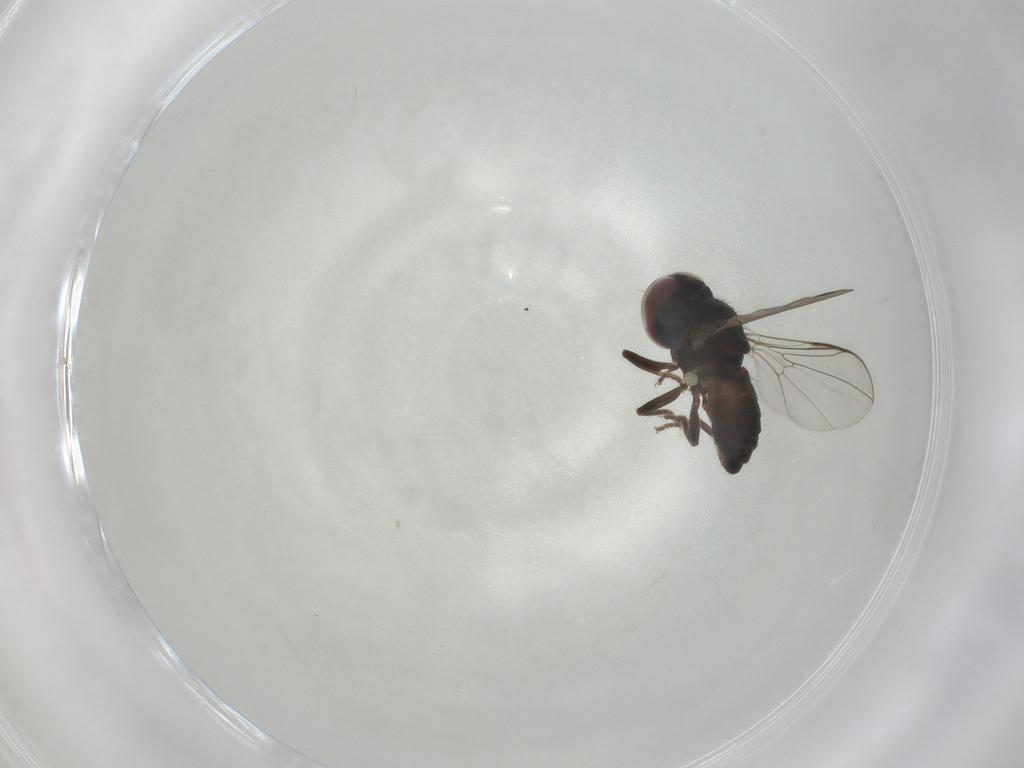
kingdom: Animalia
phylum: Arthropoda
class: Insecta
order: Diptera
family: Pipunculidae
